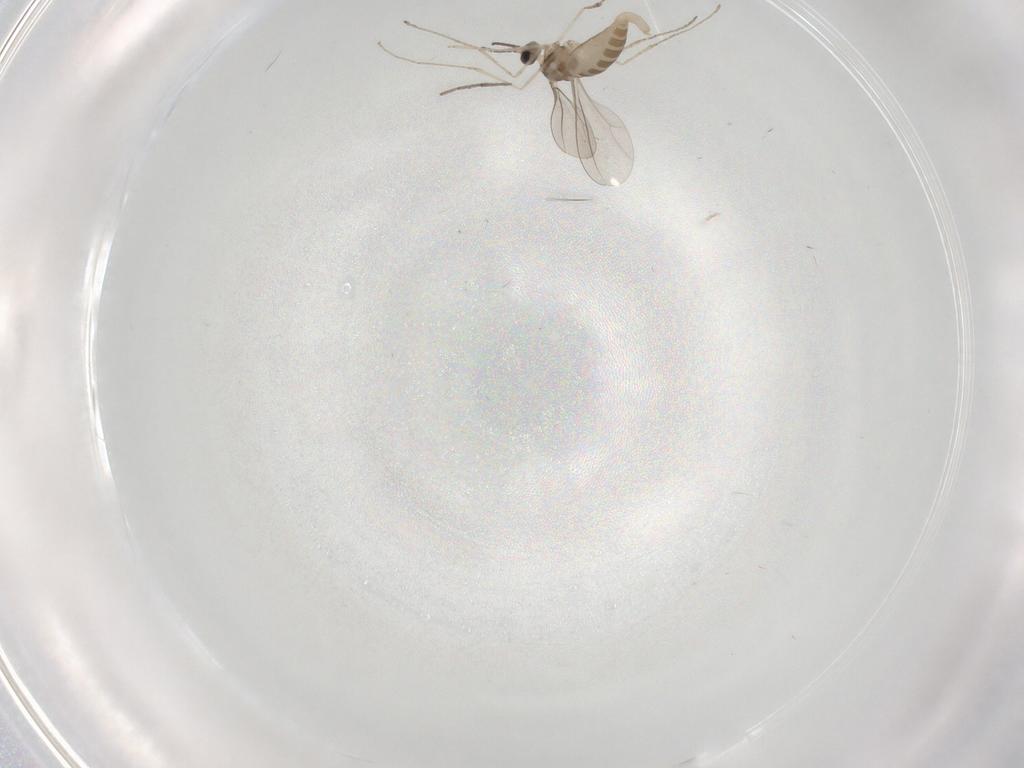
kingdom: Animalia
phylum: Arthropoda
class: Insecta
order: Diptera
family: Cecidomyiidae
